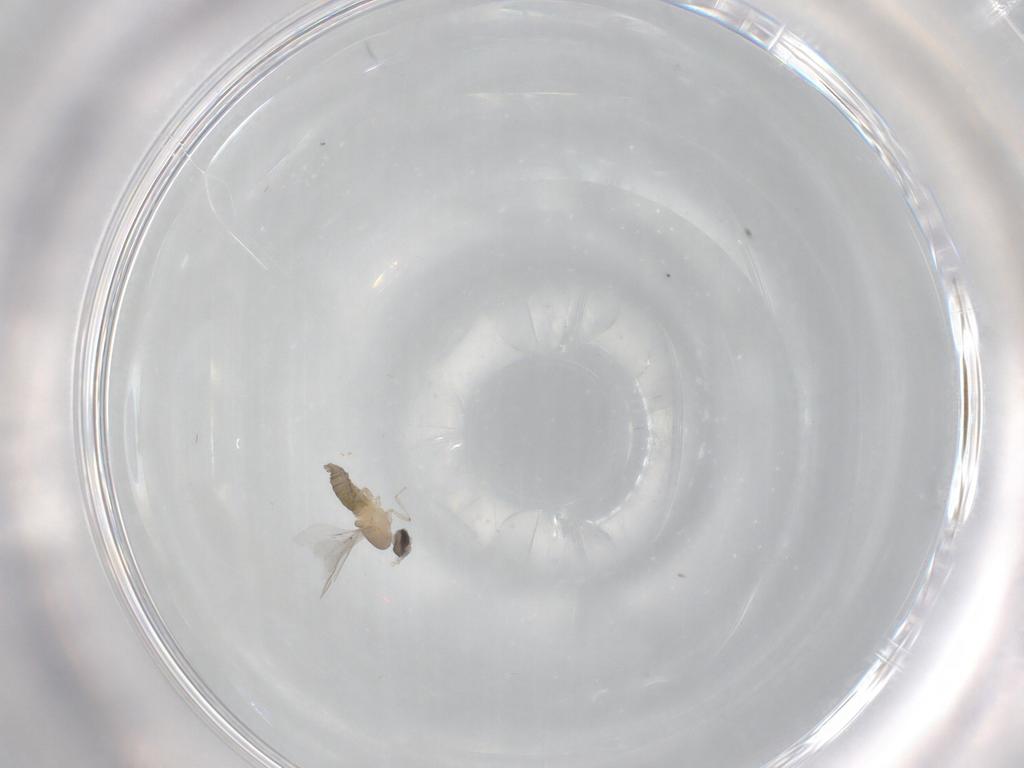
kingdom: Animalia
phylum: Arthropoda
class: Insecta
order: Diptera
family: Cecidomyiidae
